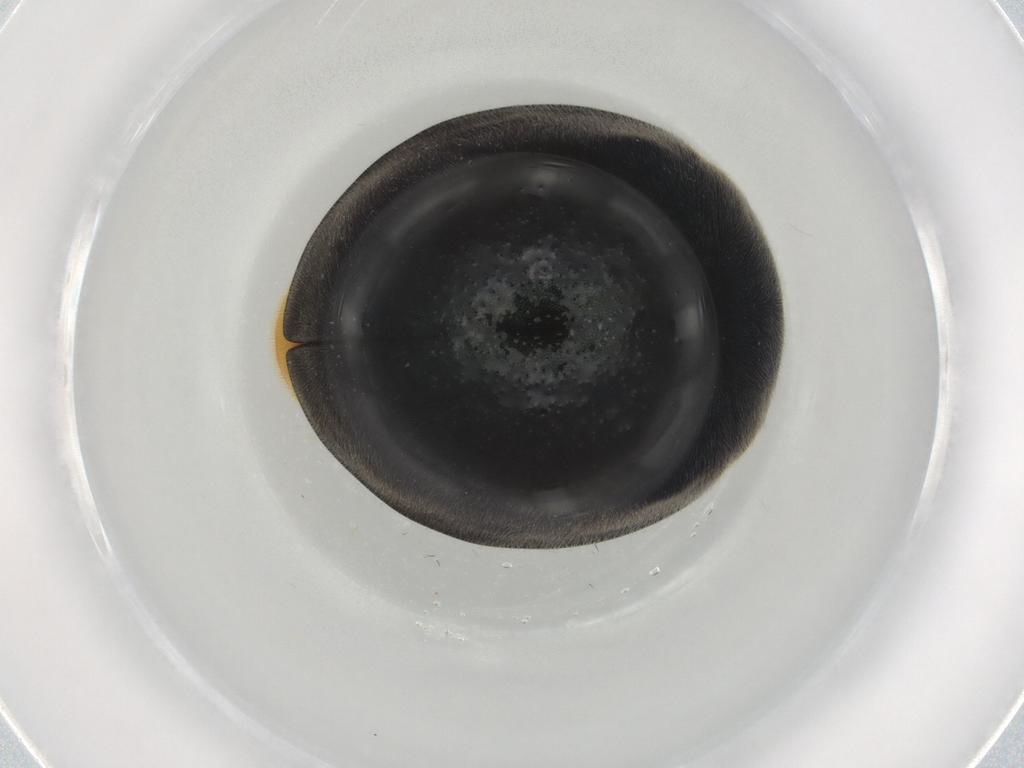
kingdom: Animalia
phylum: Arthropoda
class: Insecta
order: Coleoptera
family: Coccinellidae
